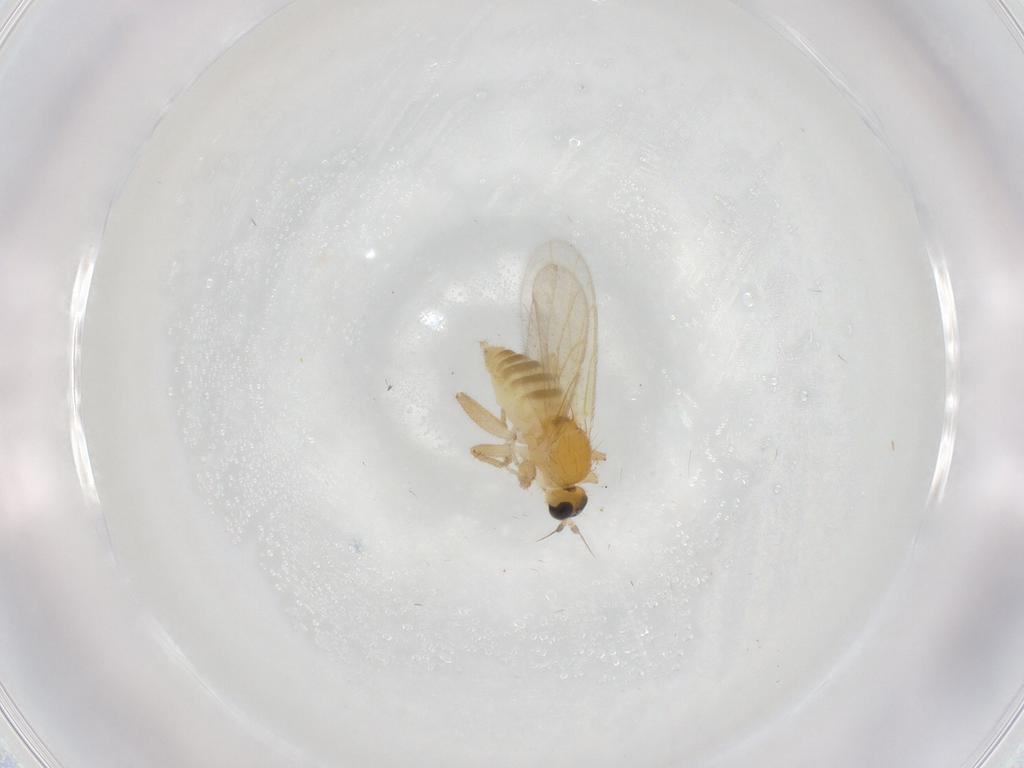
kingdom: Animalia
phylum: Arthropoda
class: Insecta
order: Diptera
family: Hybotidae
